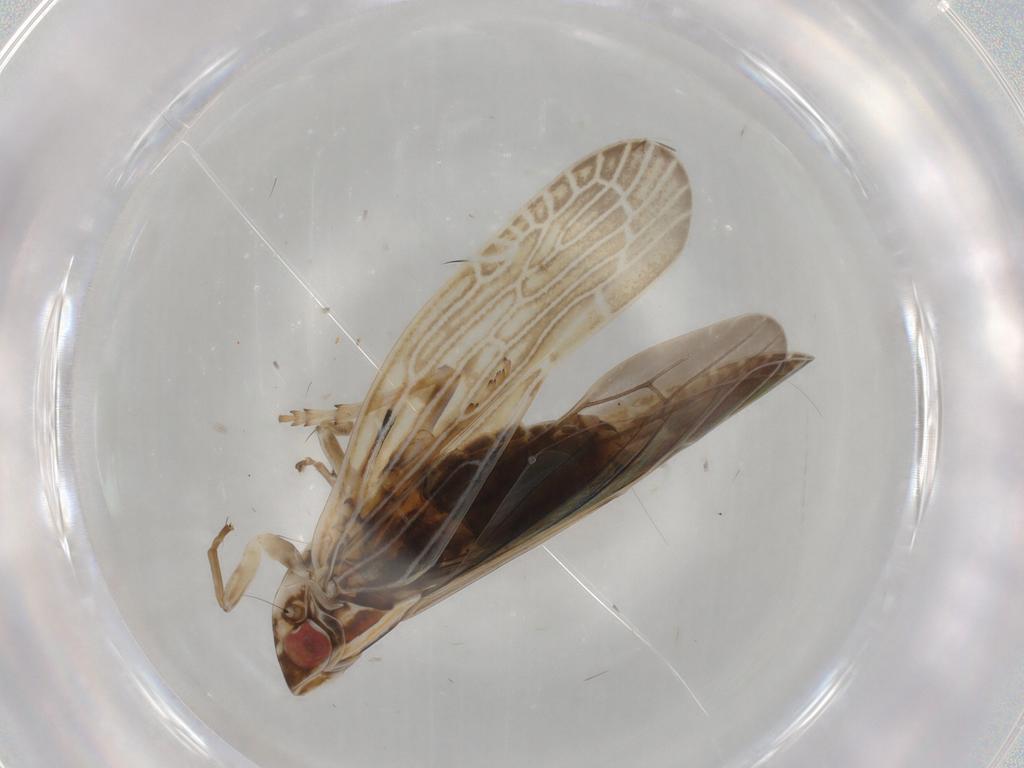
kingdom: Animalia
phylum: Arthropoda
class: Insecta
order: Hemiptera
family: Achilidae
